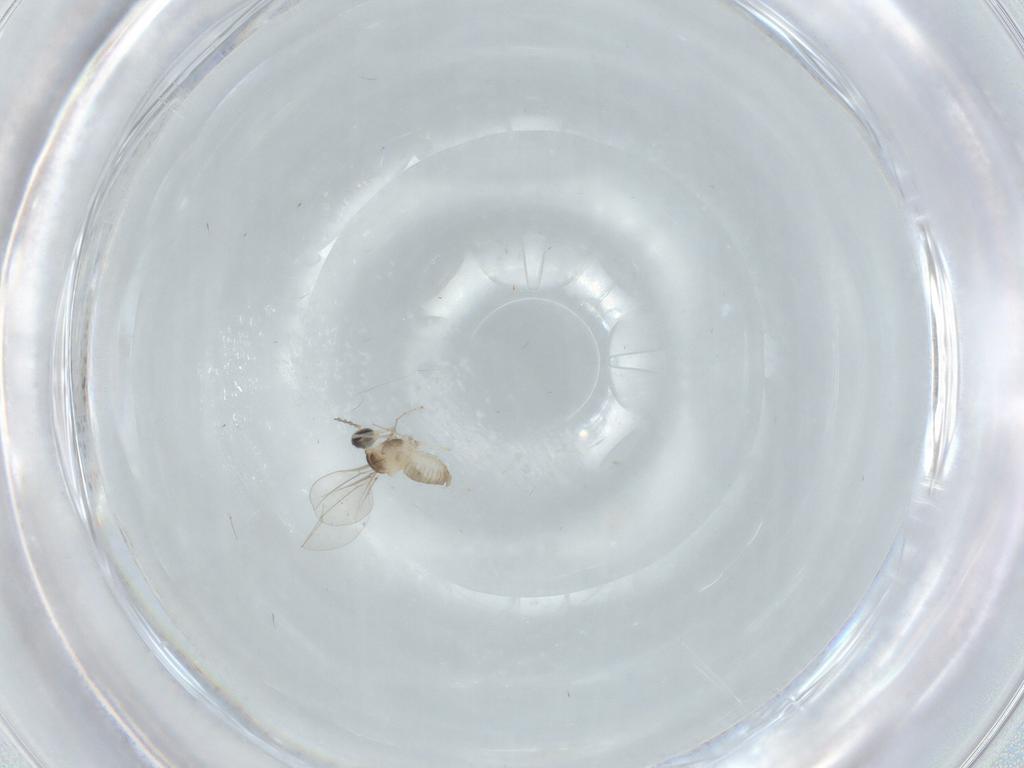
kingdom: Animalia
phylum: Arthropoda
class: Insecta
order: Diptera
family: Cecidomyiidae
